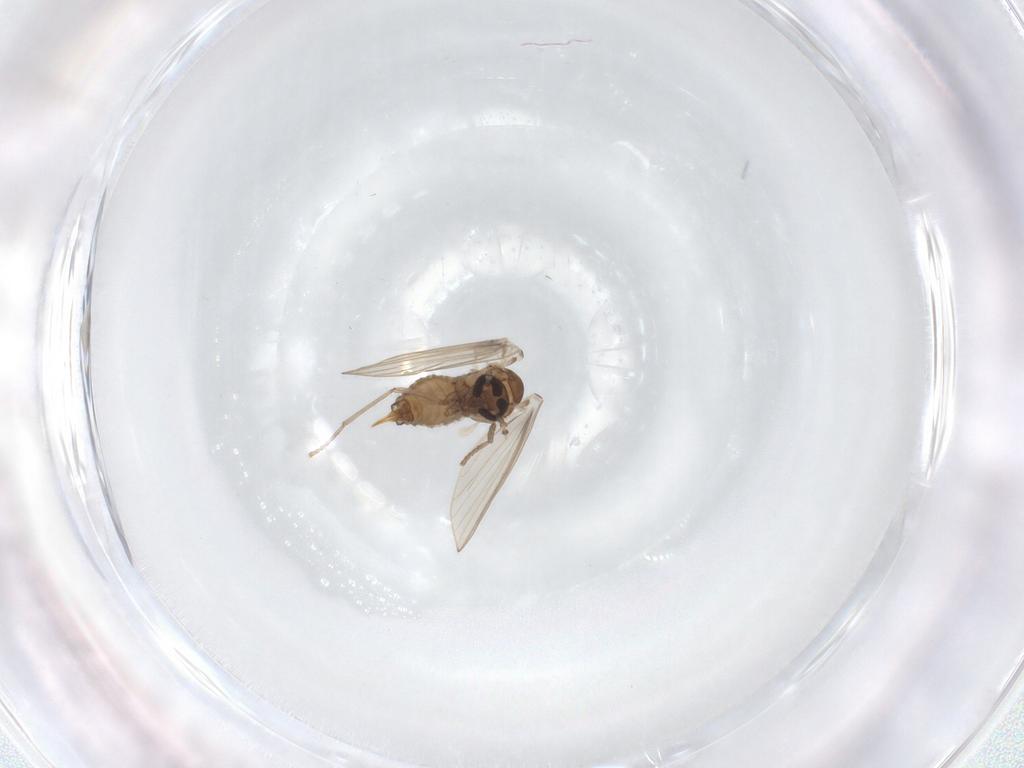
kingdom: Animalia
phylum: Arthropoda
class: Insecta
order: Diptera
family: Psychodidae
